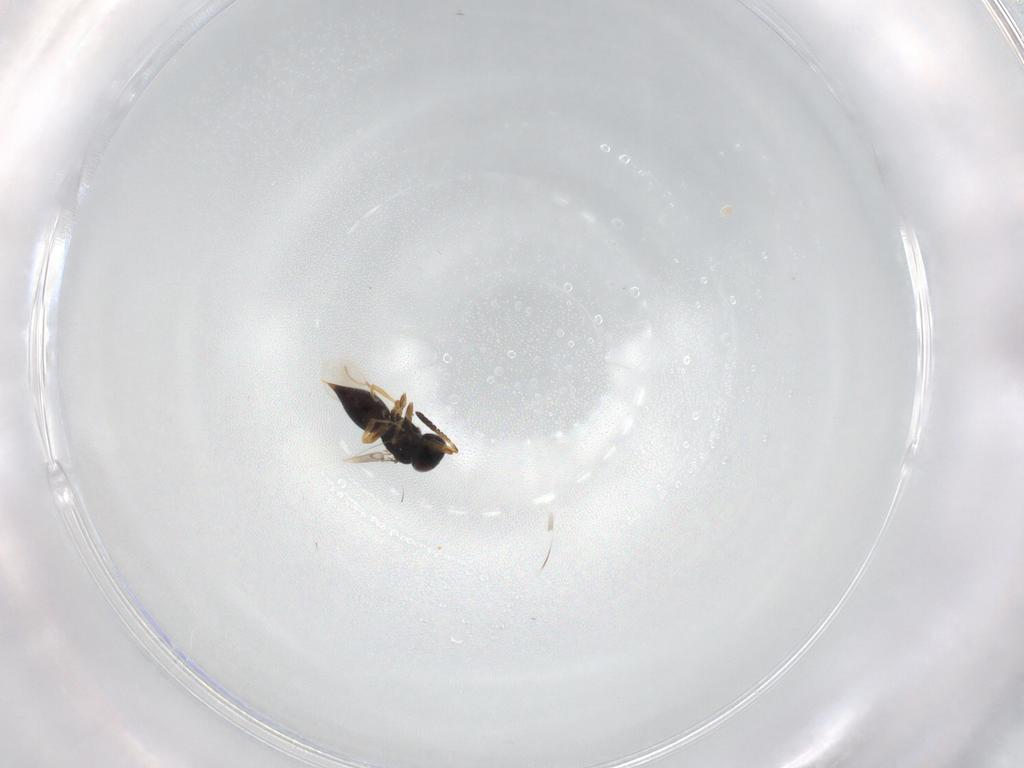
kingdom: Animalia
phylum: Arthropoda
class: Insecta
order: Hymenoptera
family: Ceraphronidae
